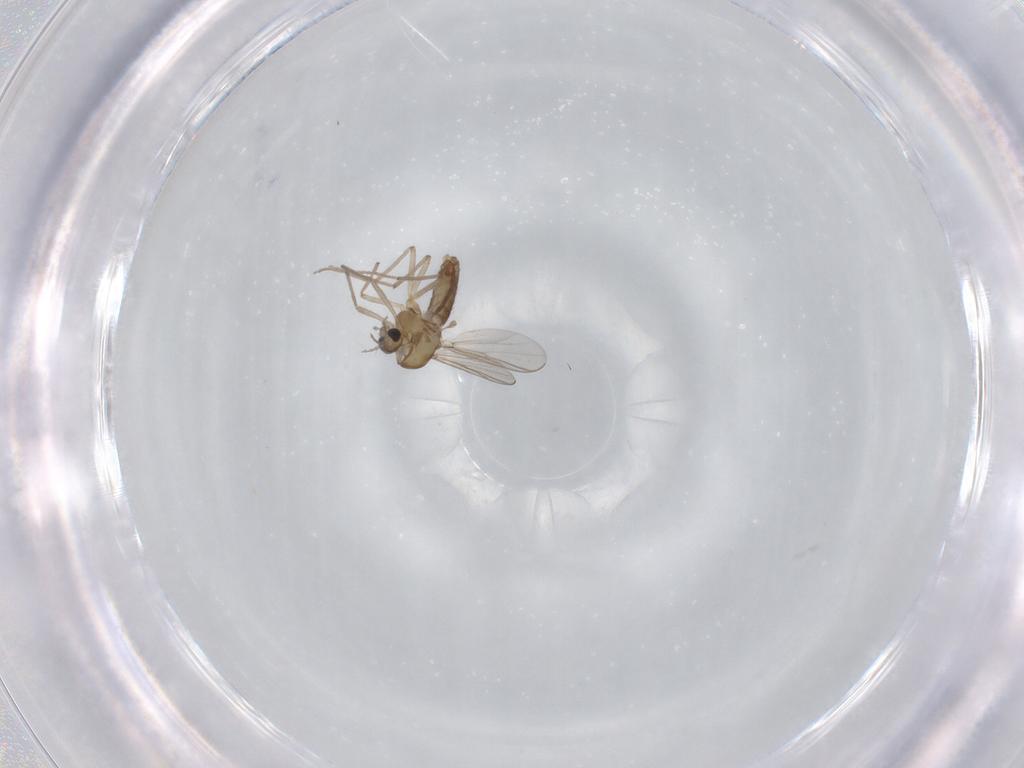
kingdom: Animalia
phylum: Arthropoda
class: Insecta
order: Diptera
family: Chironomidae
